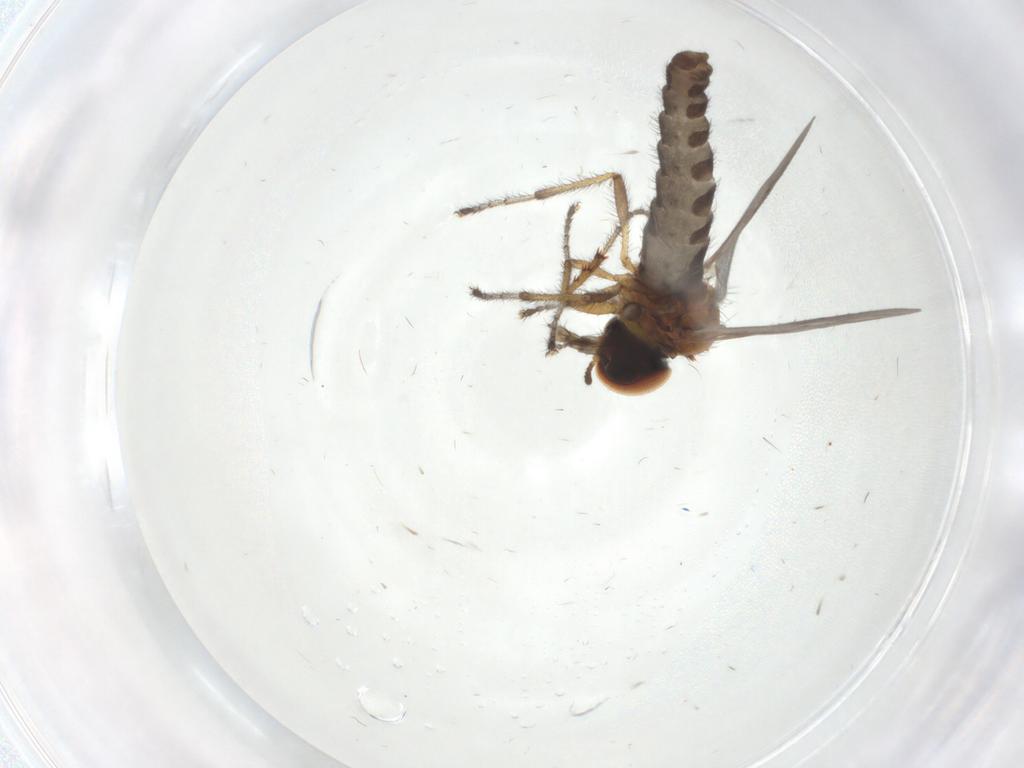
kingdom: Animalia
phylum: Arthropoda
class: Insecta
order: Diptera
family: Bibionidae
